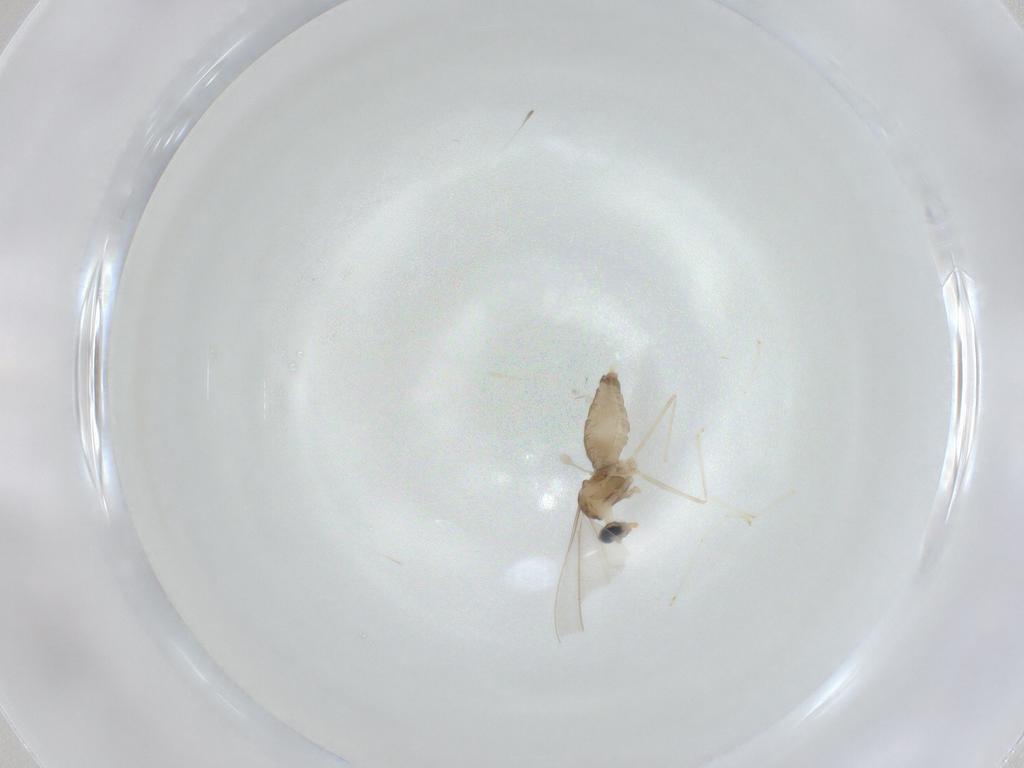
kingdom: Animalia
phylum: Arthropoda
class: Insecta
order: Diptera
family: Cecidomyiidae
